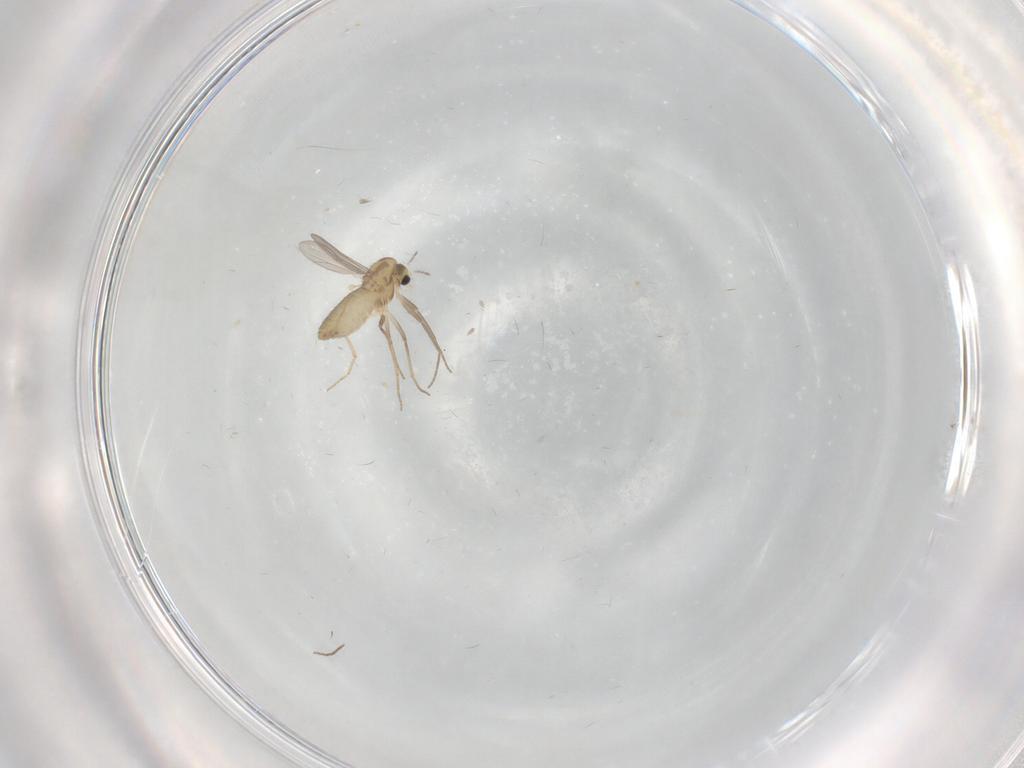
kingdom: Animalia
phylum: Arthropoda
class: Insecta
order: Diptera
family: Chironomidae
